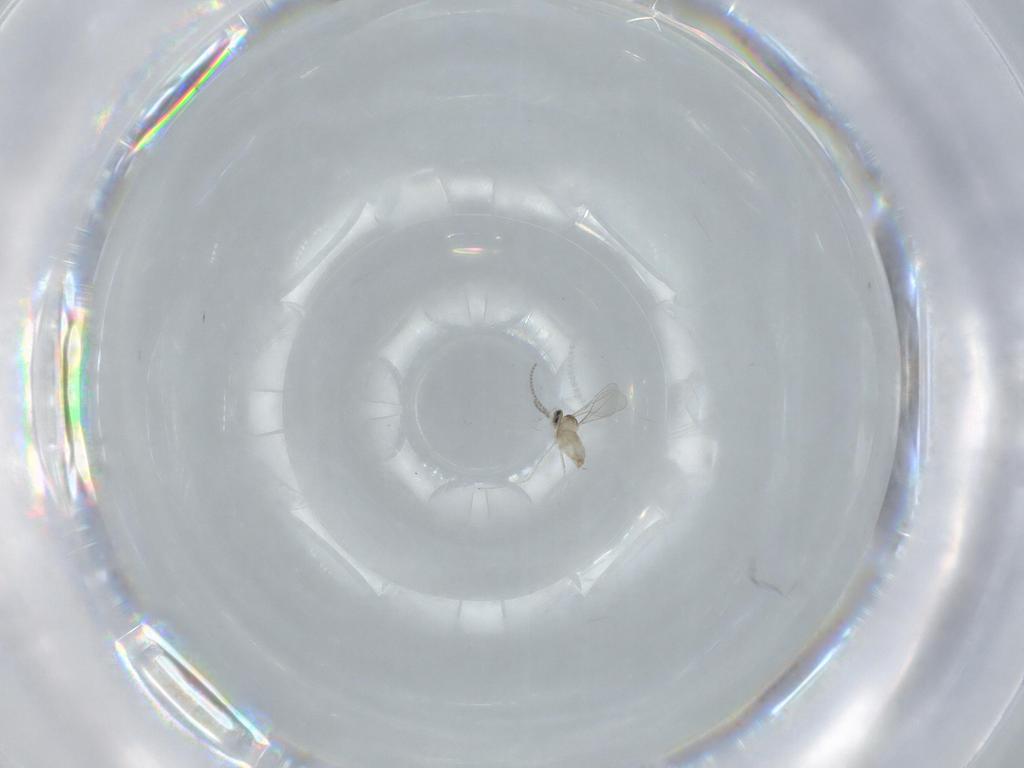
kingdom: Animalia
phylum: Arthropoda
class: Insecta
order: Diptera
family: Cecidomyiidae
